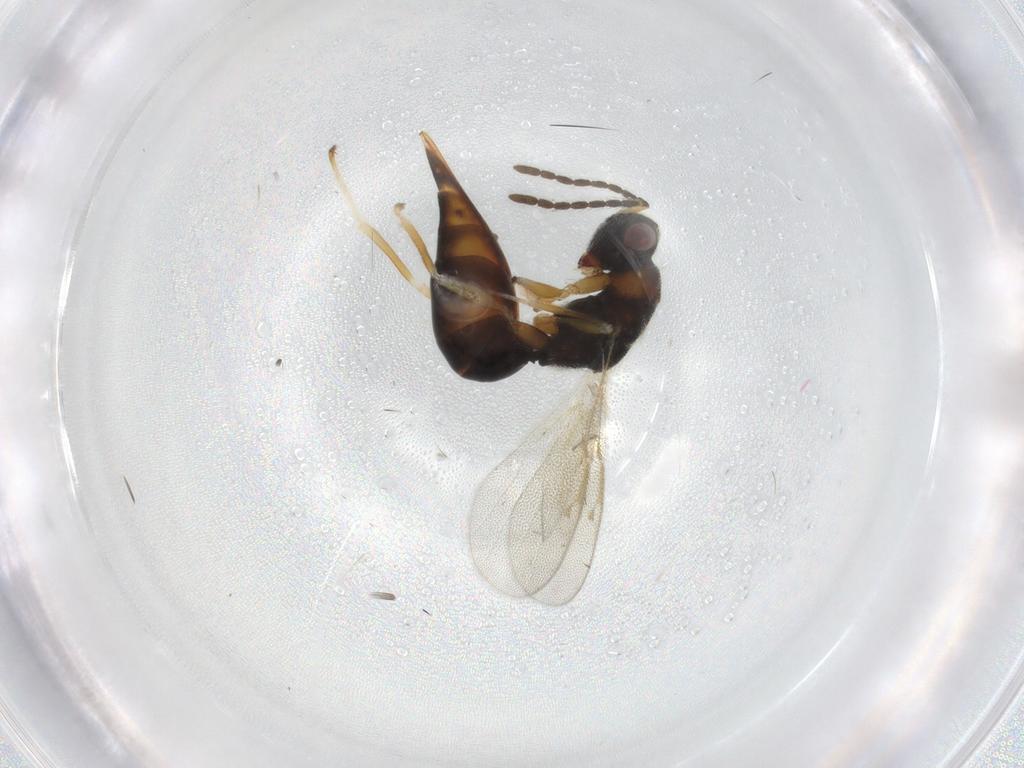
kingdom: Animalia
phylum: Arthropoda
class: Insecta
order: Hymenoptera
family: Eurytomidae
